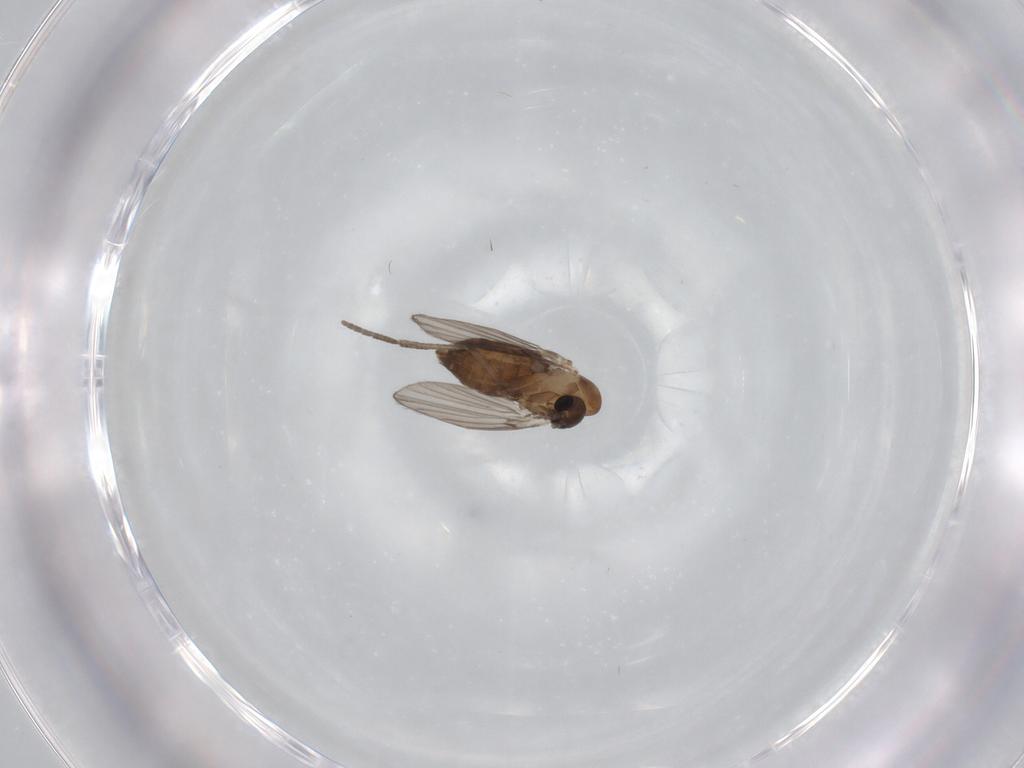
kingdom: Animalia
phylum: Arthropoda
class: Insecta
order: Diptera
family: Psychodidae
